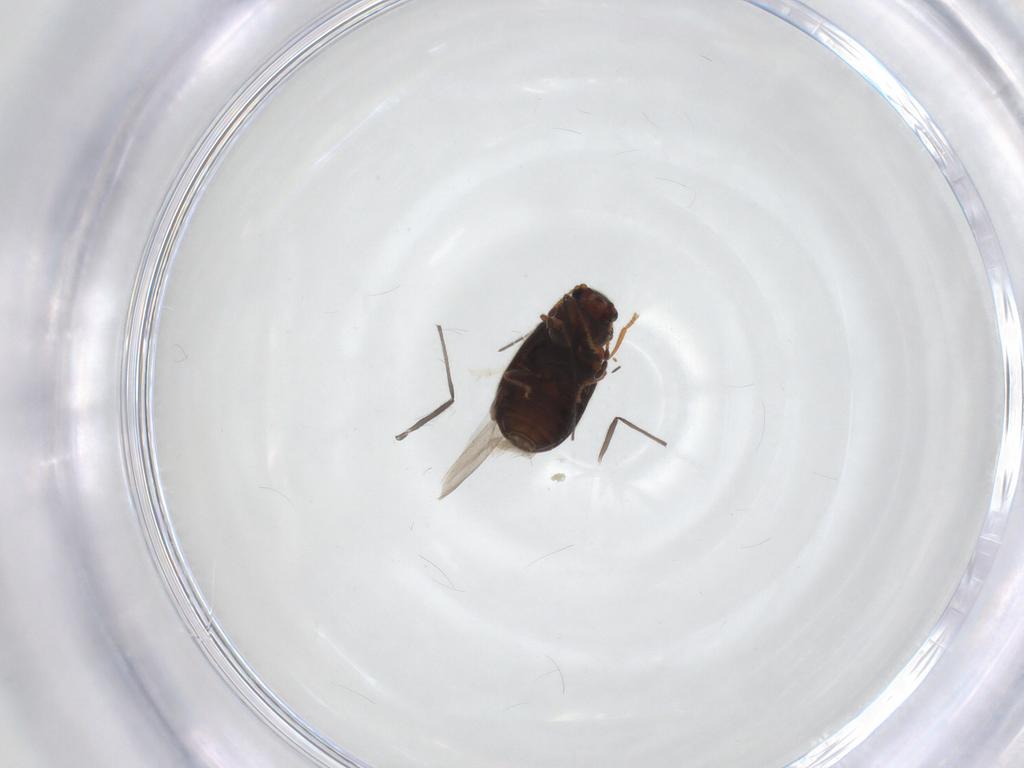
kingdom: Animalia
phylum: Arthropoda
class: Insecta
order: Coleoptera
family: Ptinidae
